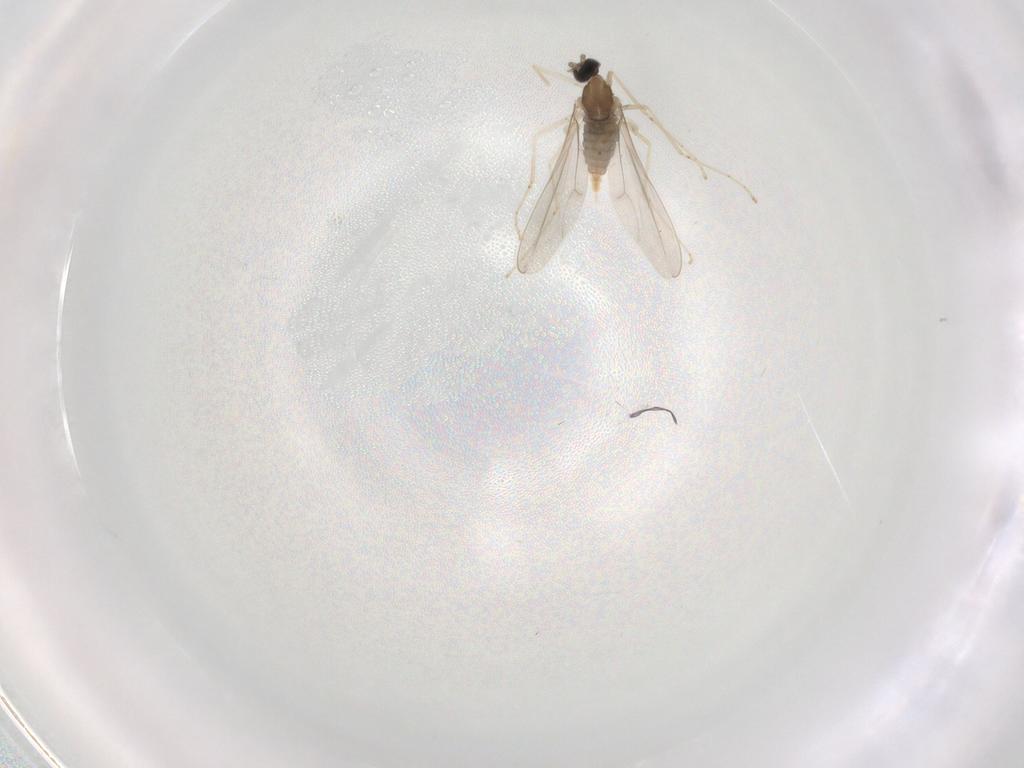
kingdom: Animalia
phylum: Arthropoda
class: Insecta
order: Diptera
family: Cecidomyiidae
